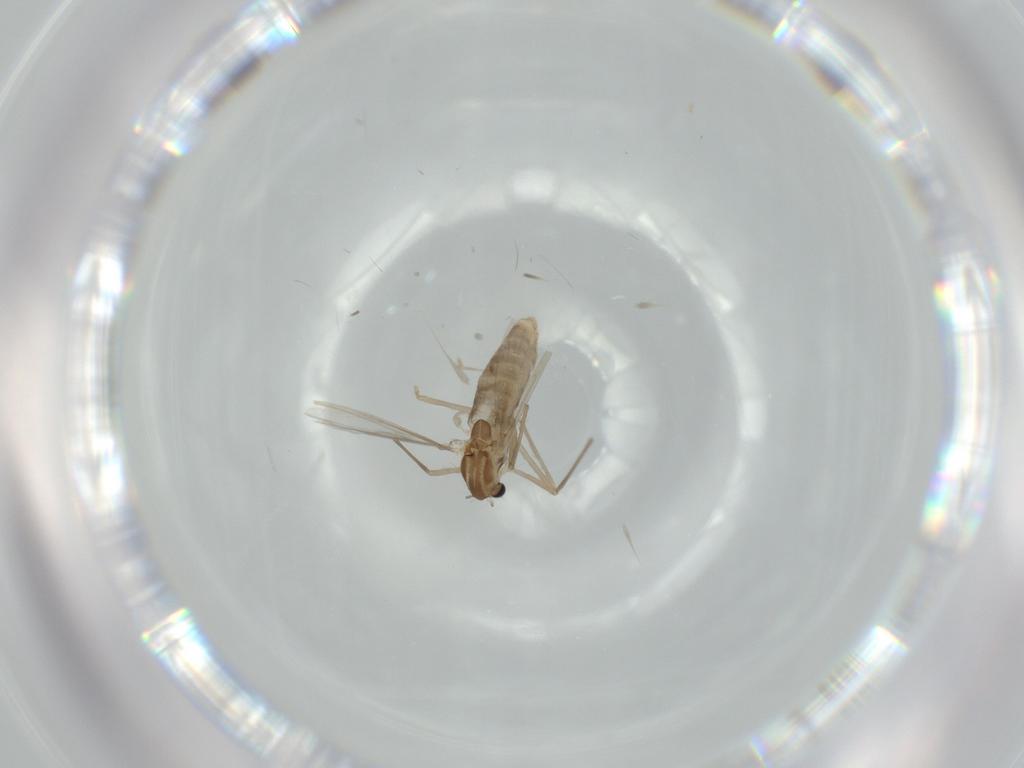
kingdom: Animalia
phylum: Arthropoda
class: Insecta
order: Diptera
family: Chironomidae
